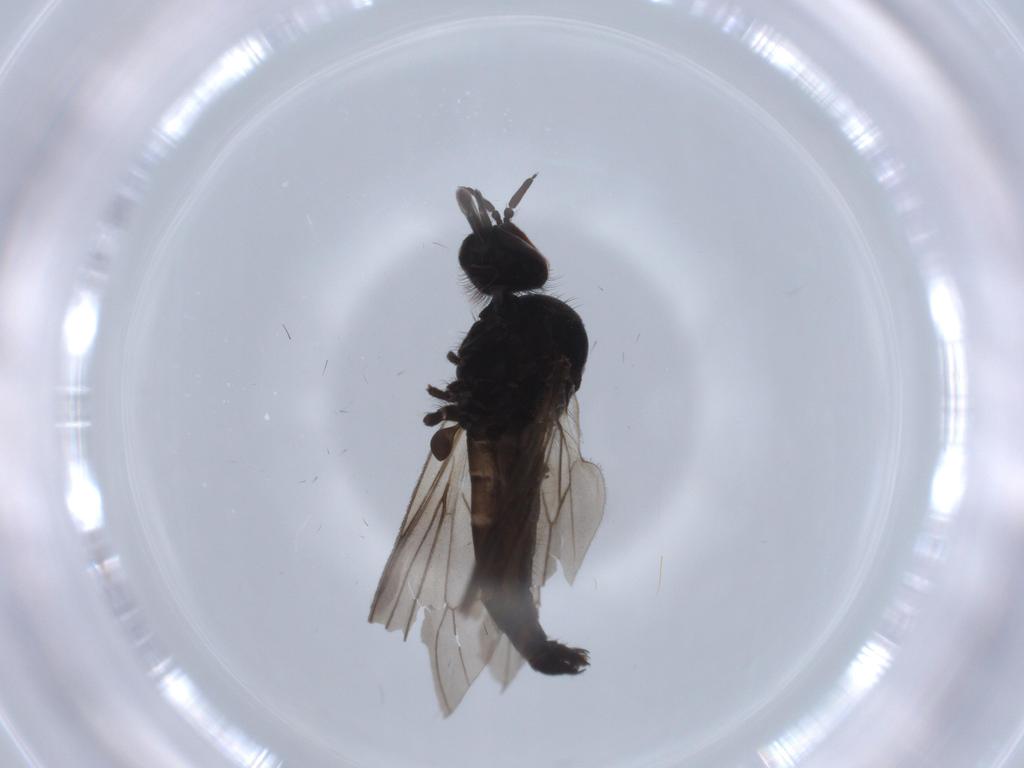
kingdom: Animalia
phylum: Arthropoda
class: Insecta
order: Diptera
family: Anthomyiidae
